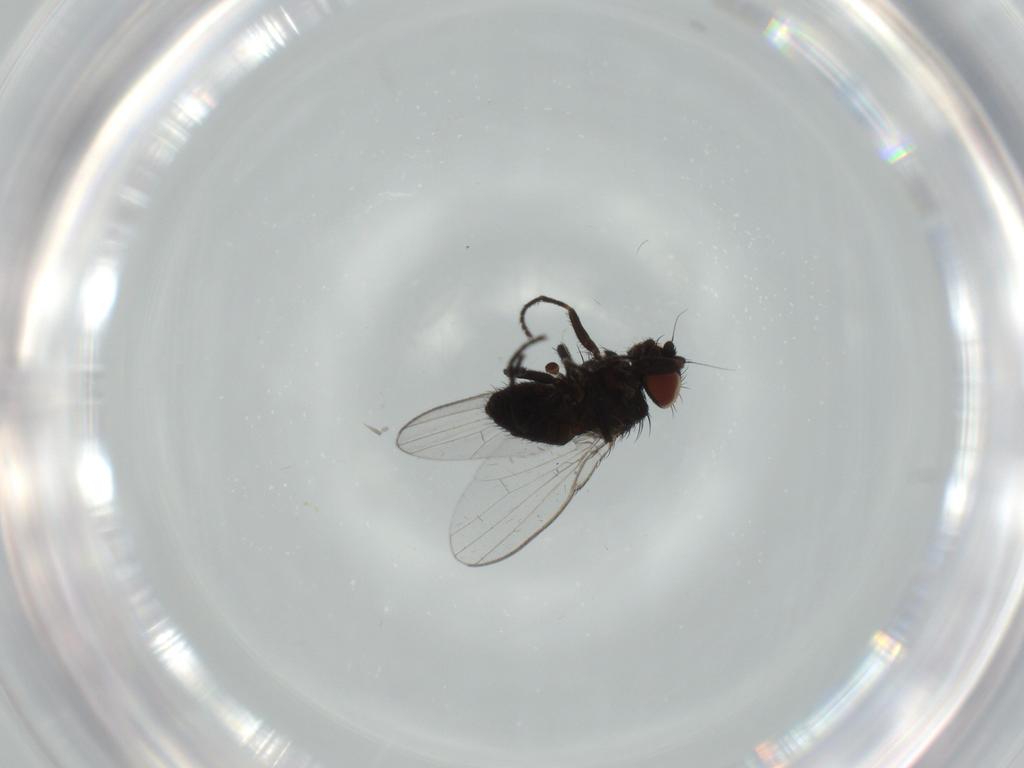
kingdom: Animalia
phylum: Arthropoda
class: Insecta
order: Diptera
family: Milichiidae
